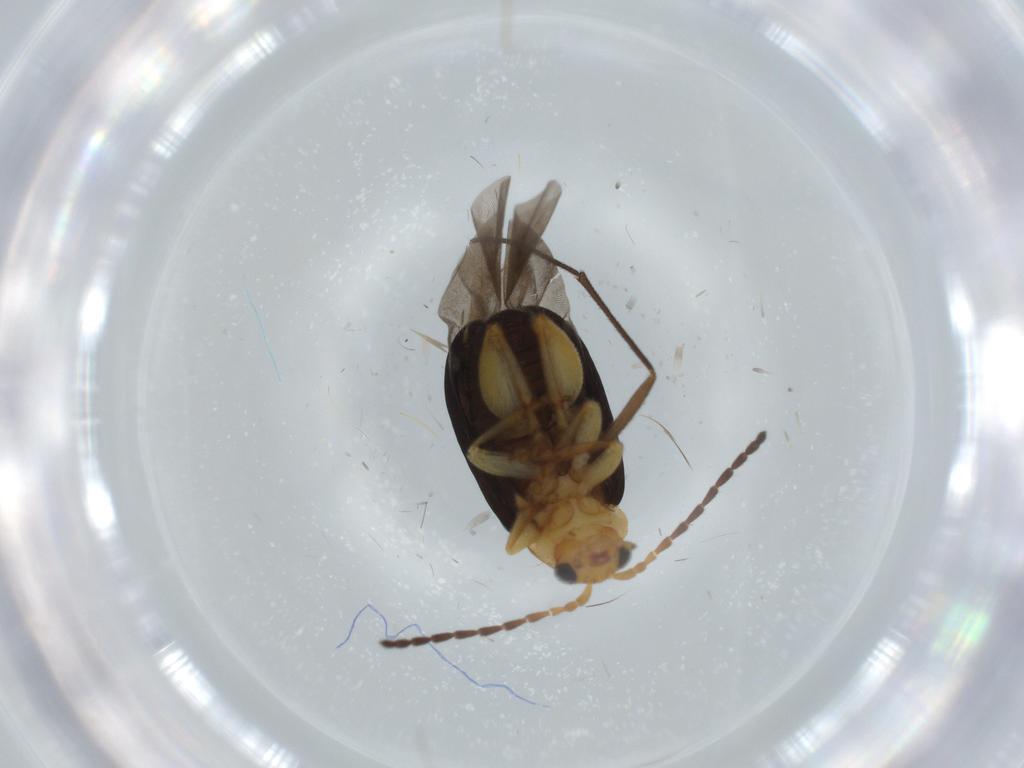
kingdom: Animalia
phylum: Arthropoda
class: Insecta
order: Coleoptera
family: Chrysomelidae
